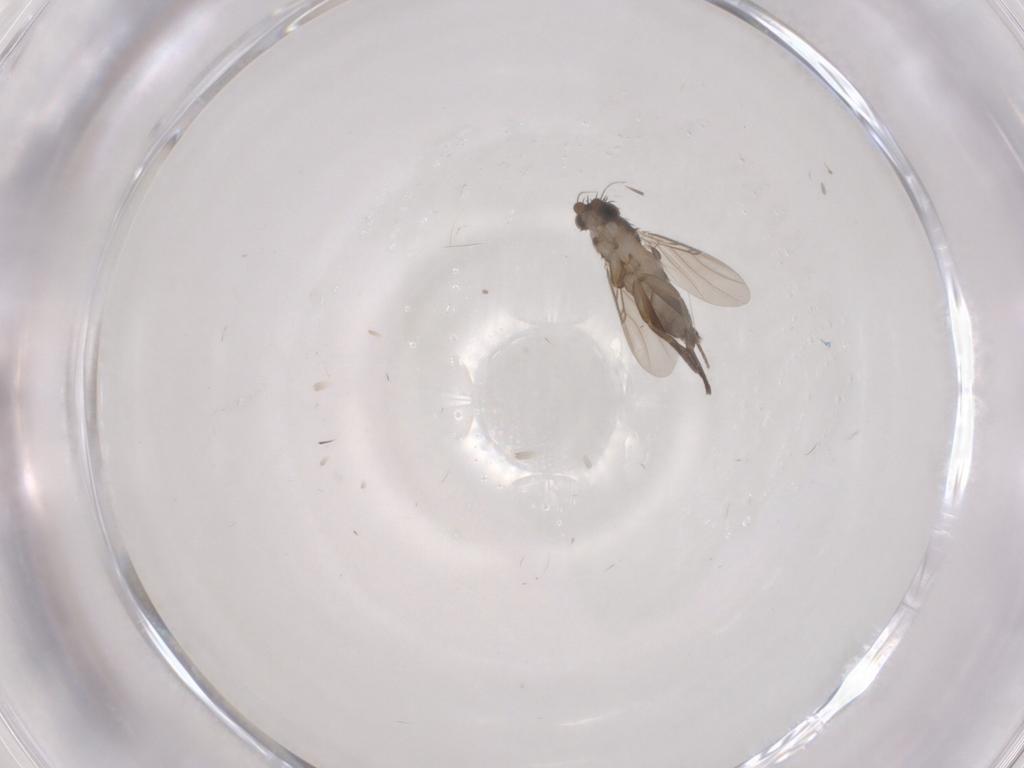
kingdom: Animalia
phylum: Arthropoda
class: Insecta
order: Diptera
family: Phoridae
